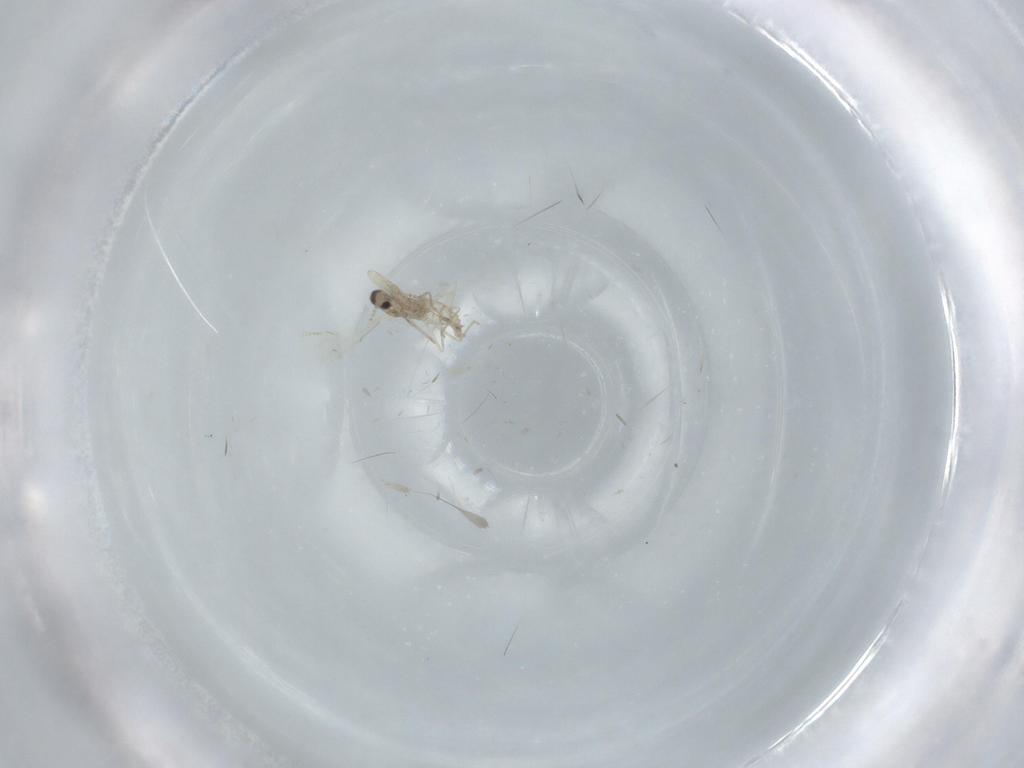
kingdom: Animalia
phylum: Arthropoda
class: Insecta
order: Diptera
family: Cecidomyiidae
